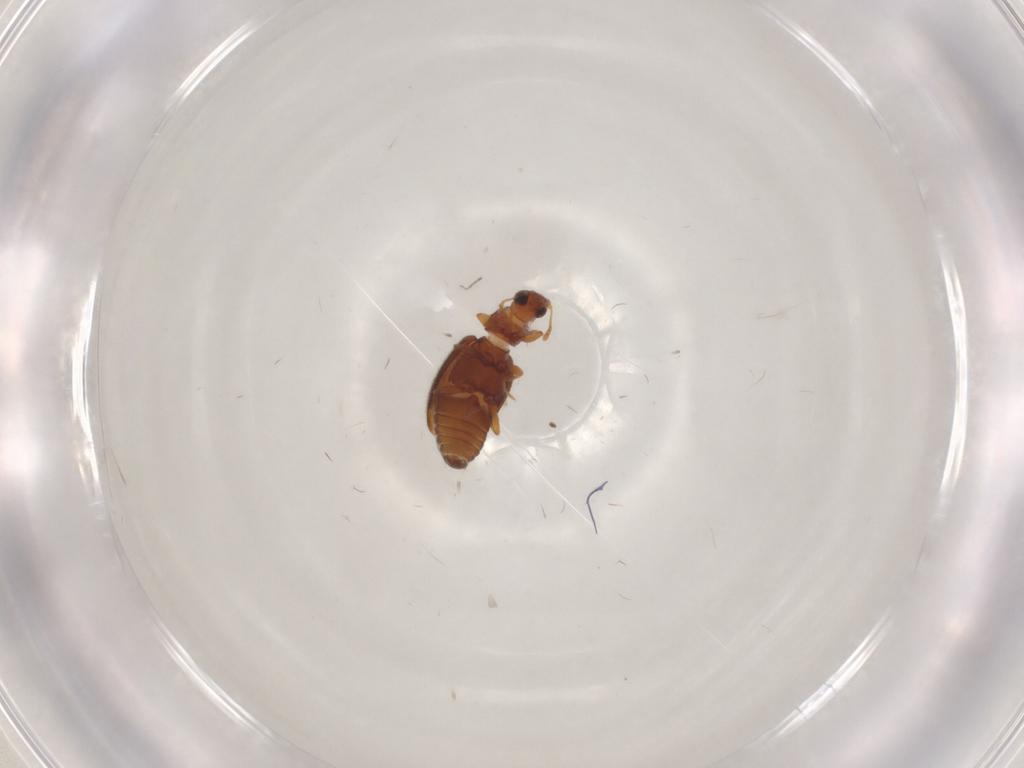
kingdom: Animalia
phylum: Arthropoda
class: Insecta
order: Coleoptera
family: Latridiidae
